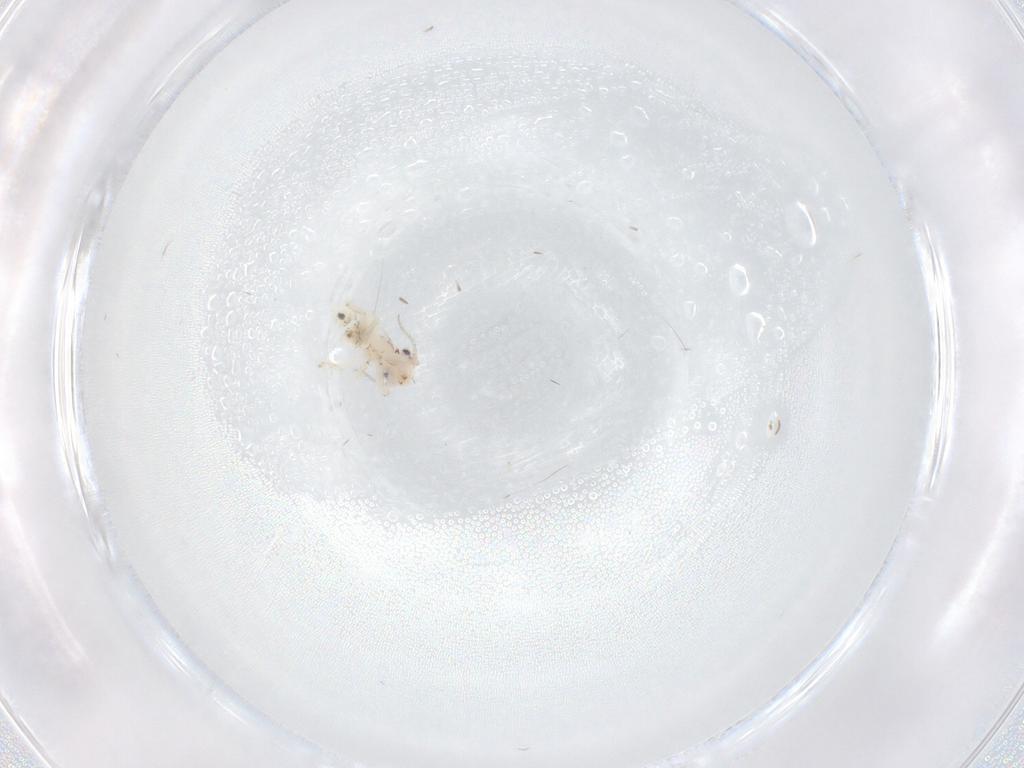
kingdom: Animalia
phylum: Arthropoda
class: Insecta
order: Psocodea
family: Lepidopsocidae
